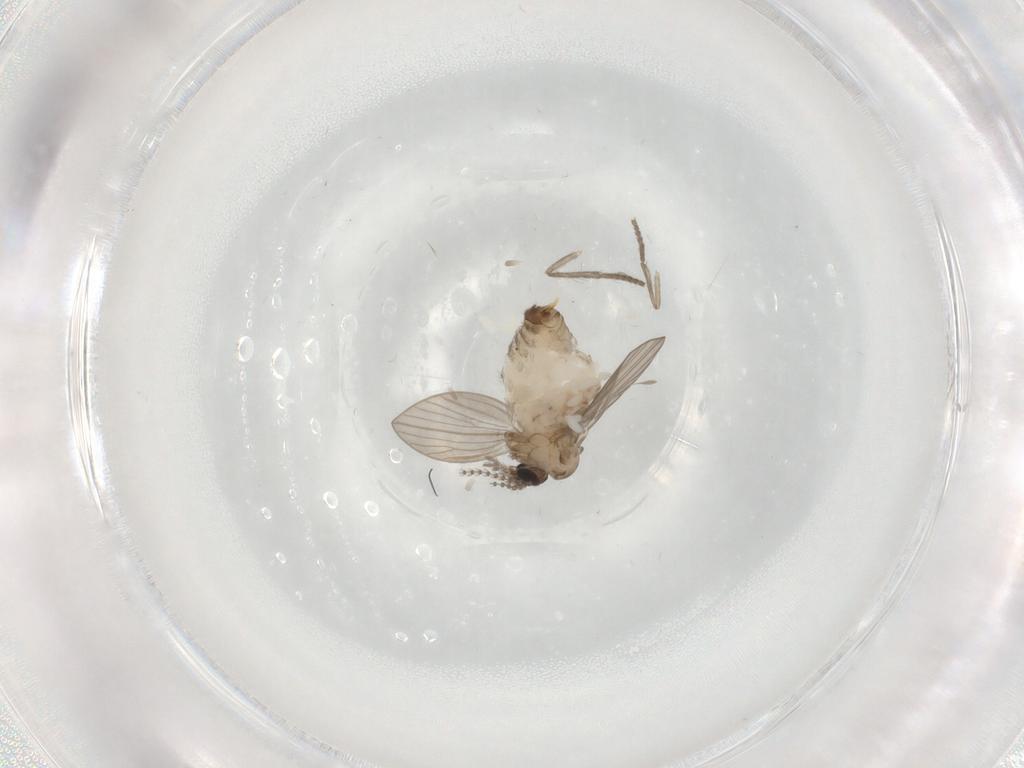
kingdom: Animalia
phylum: Arthropoda
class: Insecta
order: Diptera
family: Psychodidae
